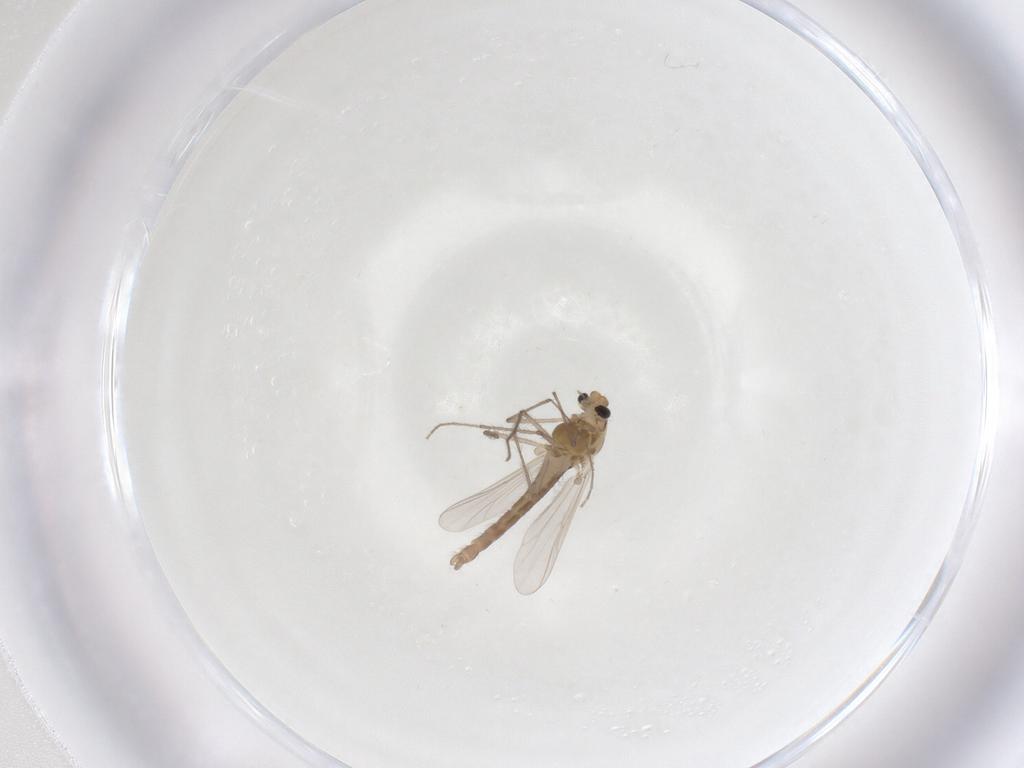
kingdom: Animalia
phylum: Arthropoda
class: Insecta
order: Diptera
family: Chironomidae
